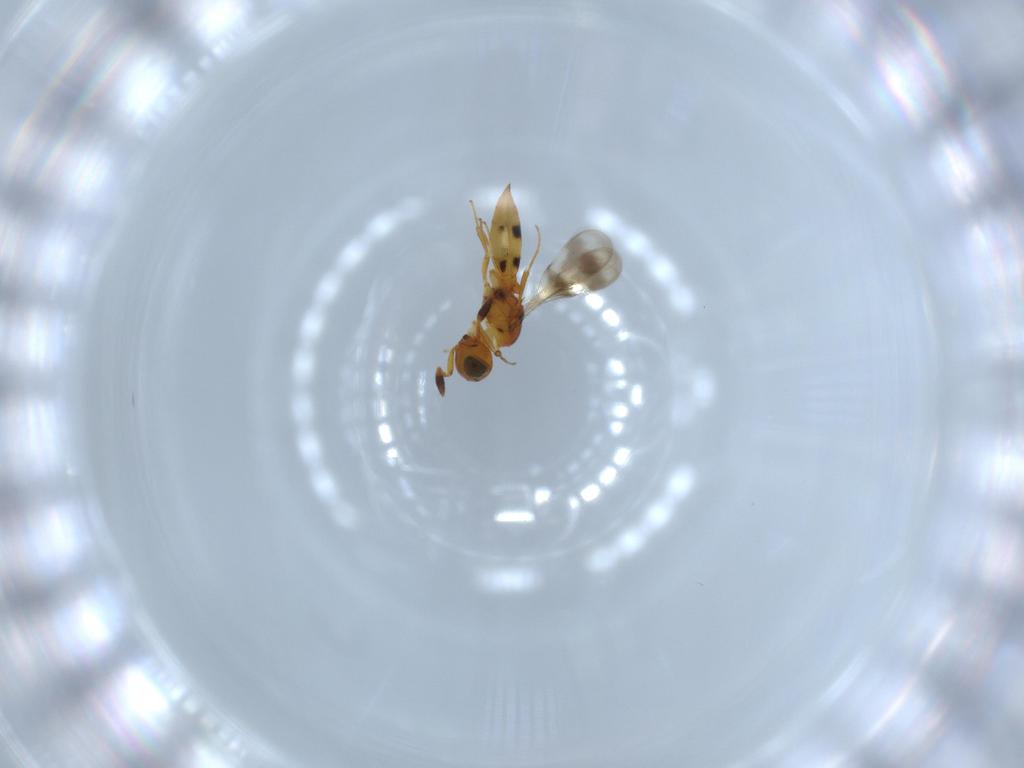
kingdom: Animalia
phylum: Arthropoda
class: Insecta
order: Hymenoptera
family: Scelionidae
